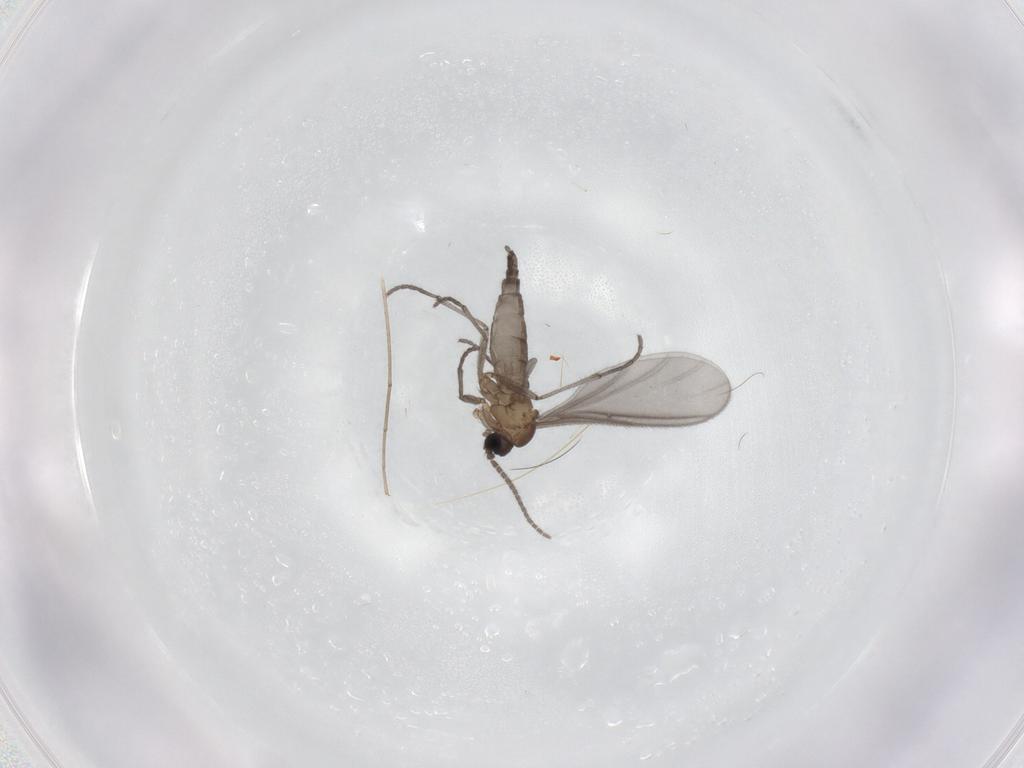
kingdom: Animalia
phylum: Arthropoda
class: Insecta
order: Diptera
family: Sciaridae
